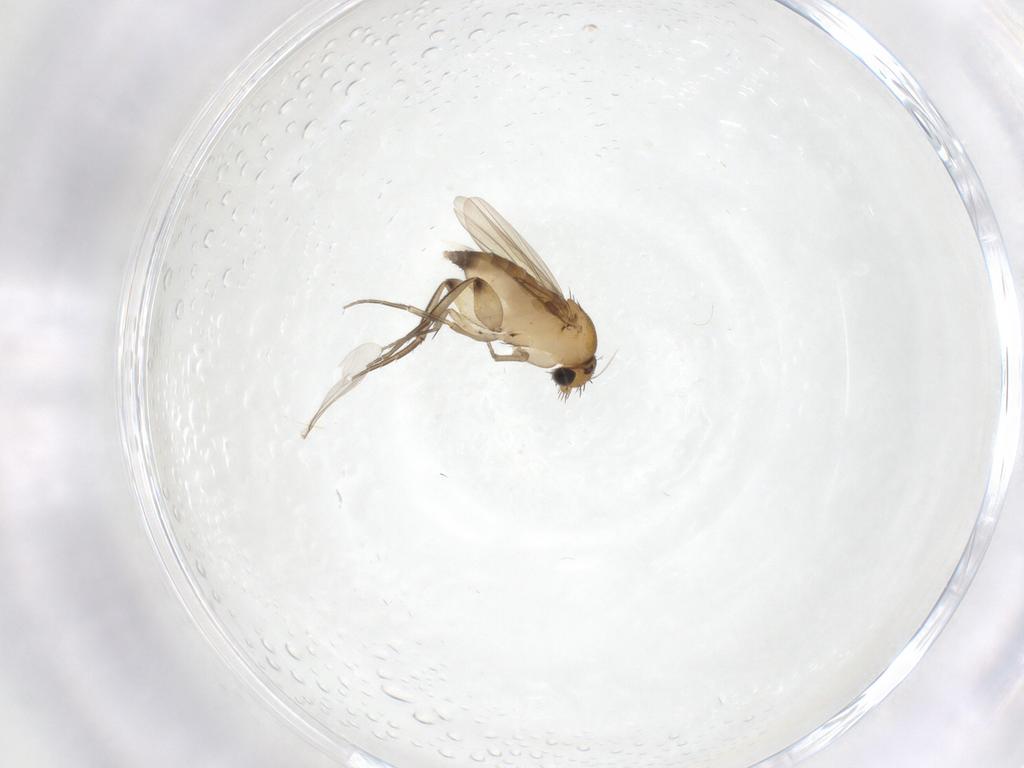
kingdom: Animalia
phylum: Arthropoda
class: Insecta
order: Diptera
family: Phoridae
